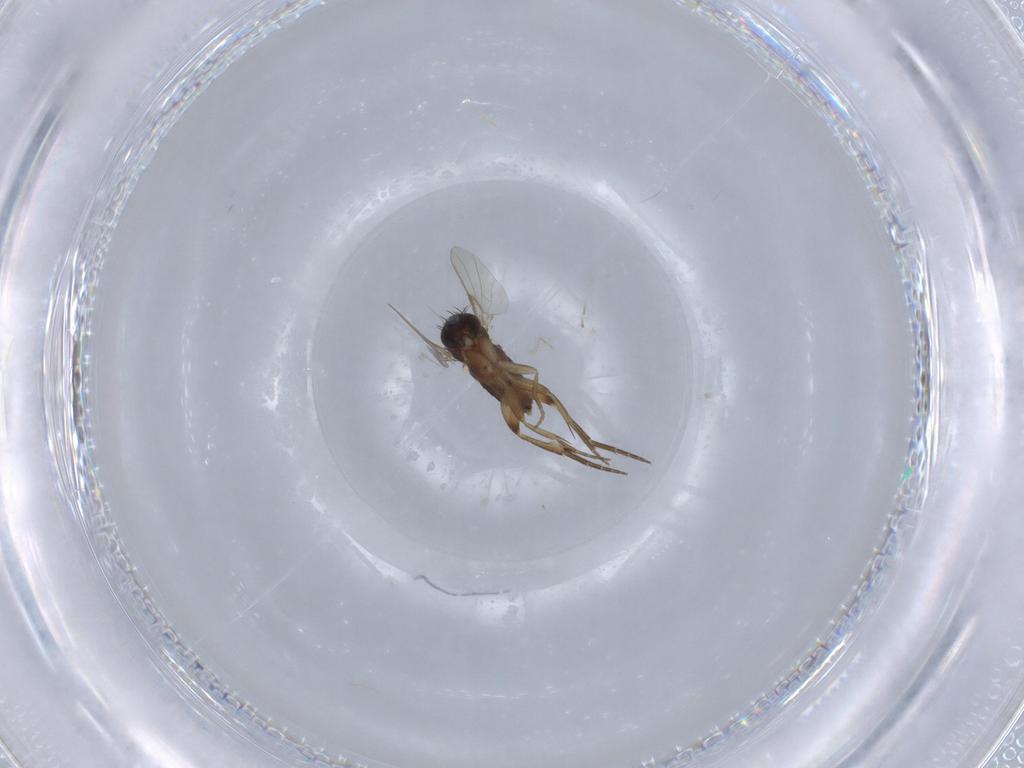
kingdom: Animalia
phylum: Arthropoda
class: Insecta
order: Diptera
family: Phoridae
